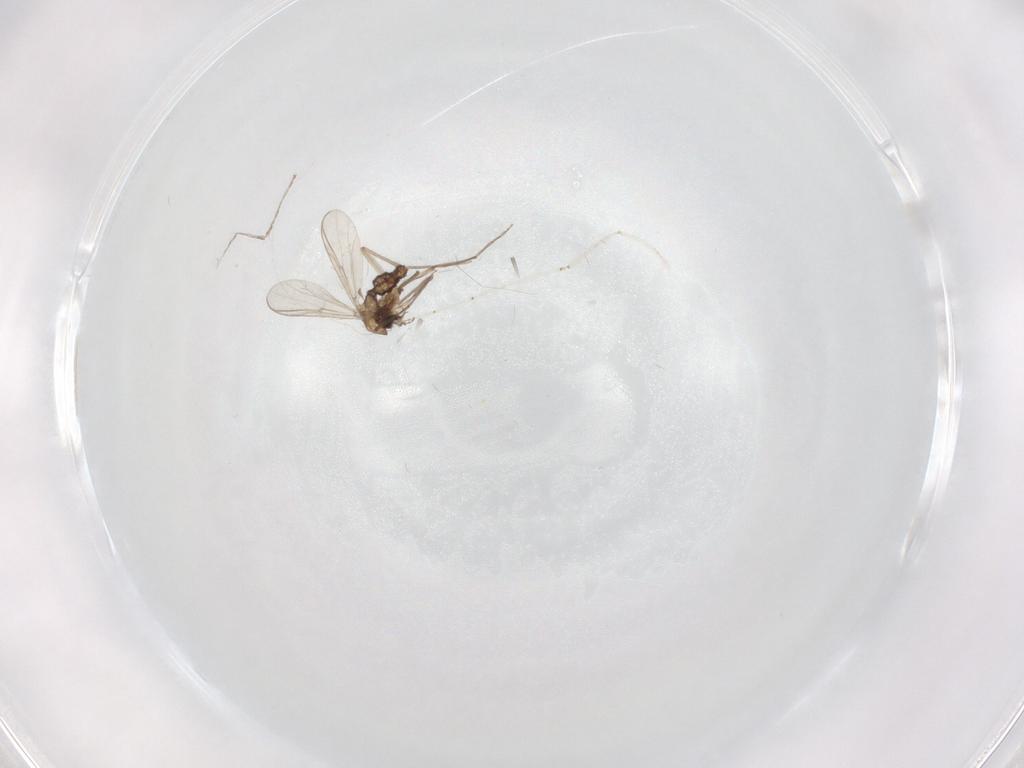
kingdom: Animalia
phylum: Arthropoda
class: Insecta
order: Diptera
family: Chironomidae
